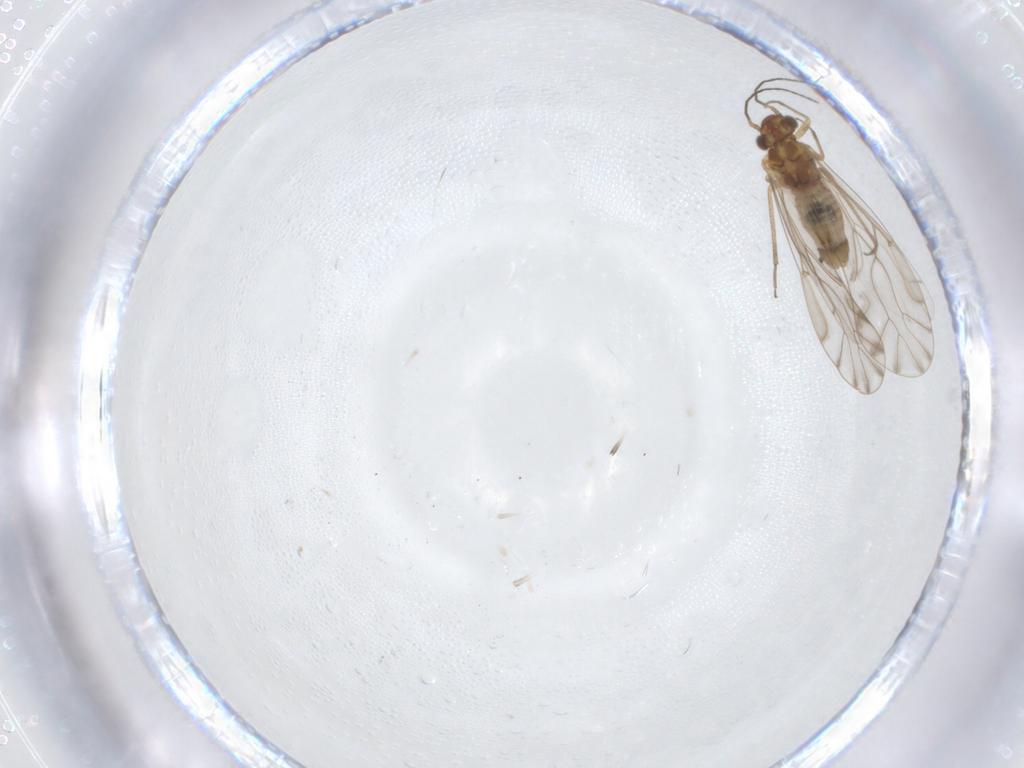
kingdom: Animalia
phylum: Arthropoda
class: Insecta
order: Psocodea
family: Lachesillidae
